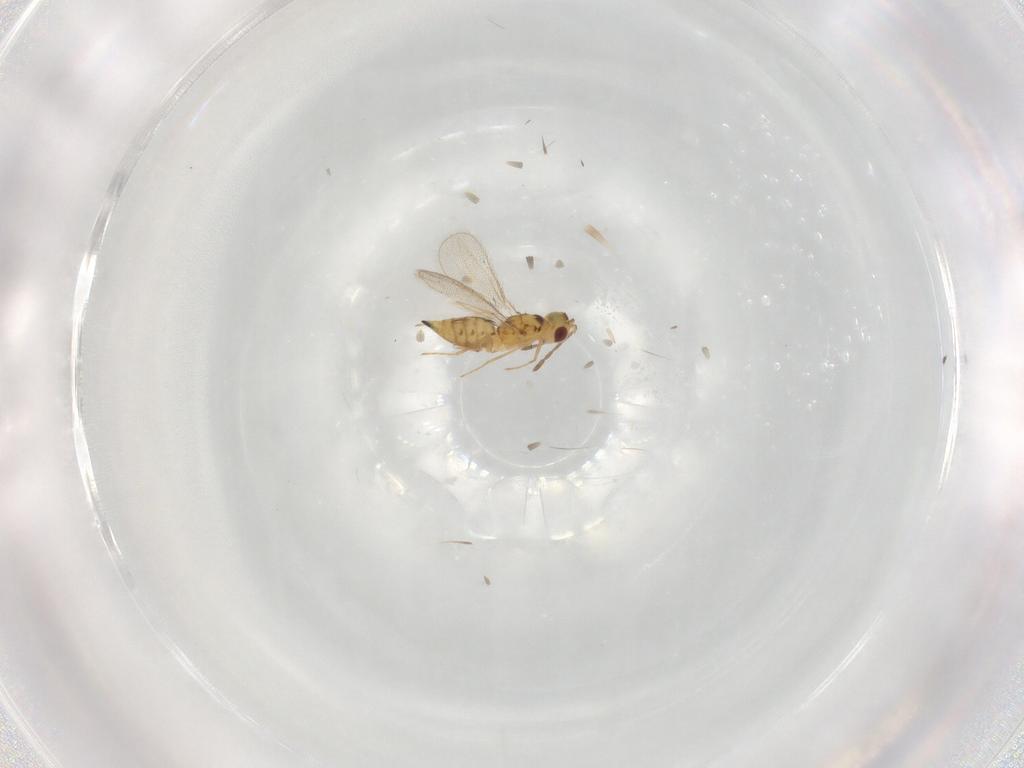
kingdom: Animalia
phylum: Arthropoda
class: Insecta
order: Hymenoptera
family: Eulophidae
